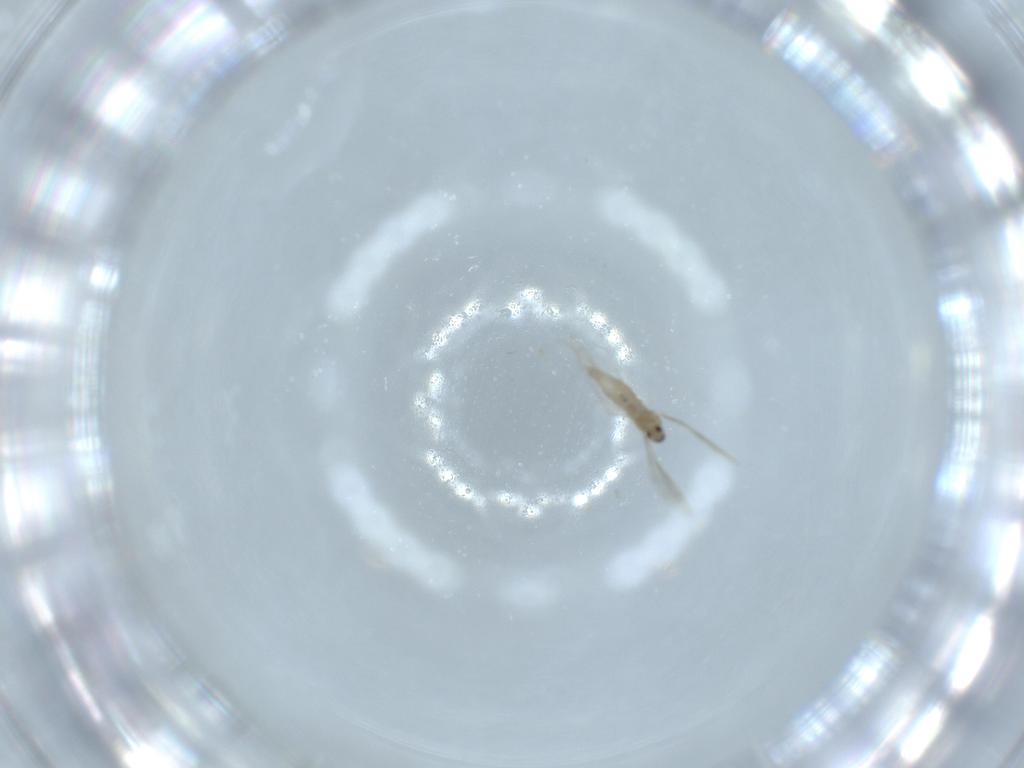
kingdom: Animalia
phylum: Arthropoda
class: Insecta
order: Diptera
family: Cecidomyiidae
